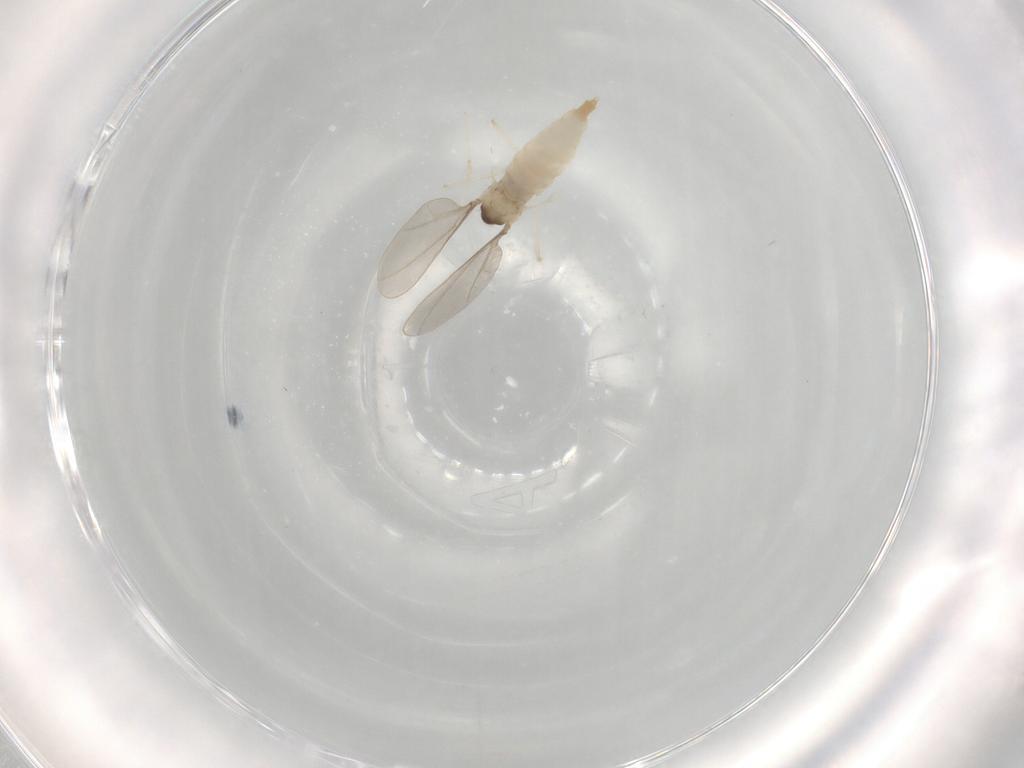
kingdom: Animalia
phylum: Arthropoda
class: Insecta
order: Diptera
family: Cecidomyiidae
